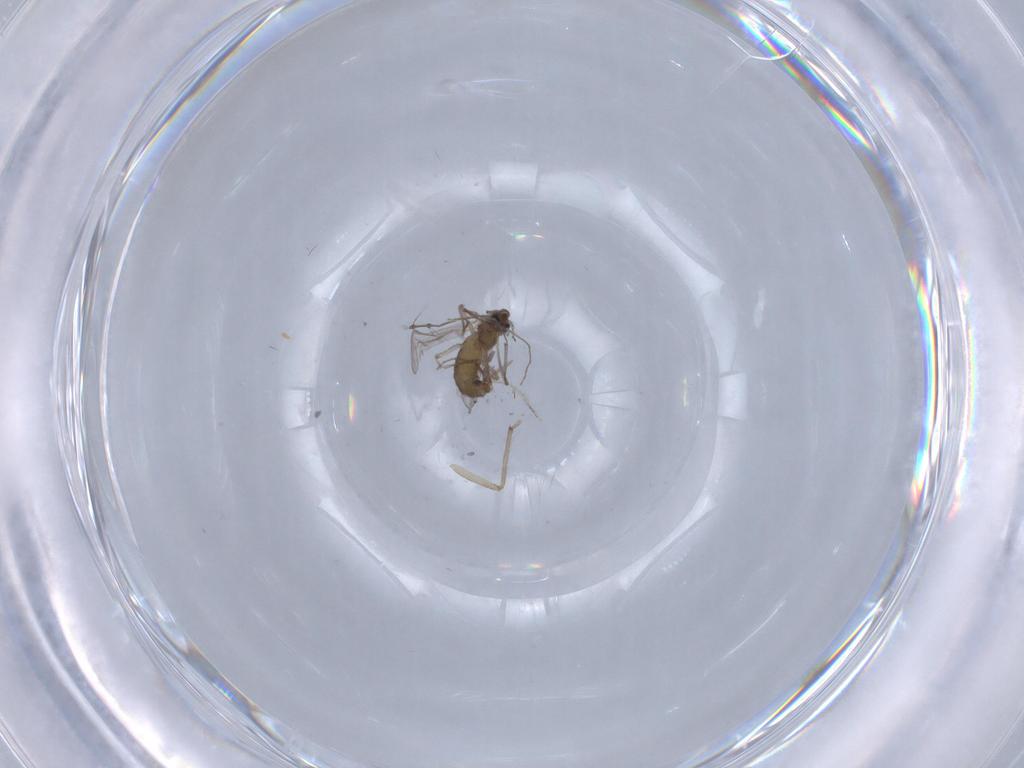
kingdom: Animalia
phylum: Arthropoda
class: Insecta
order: Diptera
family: Chironomidae
